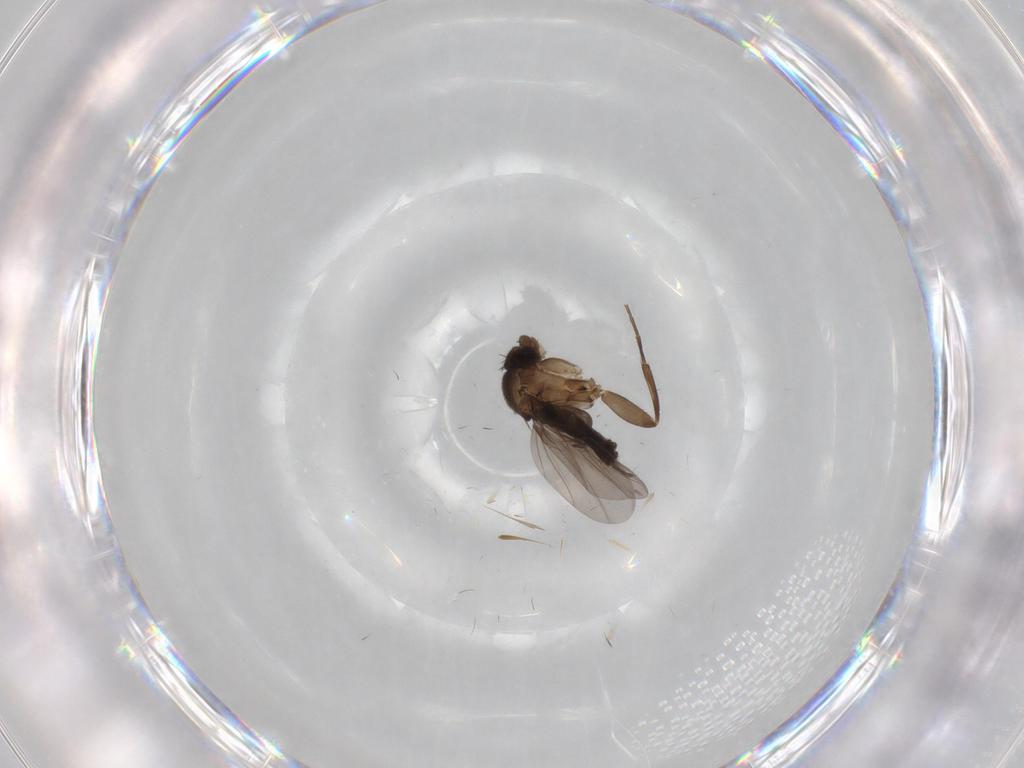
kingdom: Animalia
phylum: Arthropoda
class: Insecta
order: Diptera
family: Phoridae
